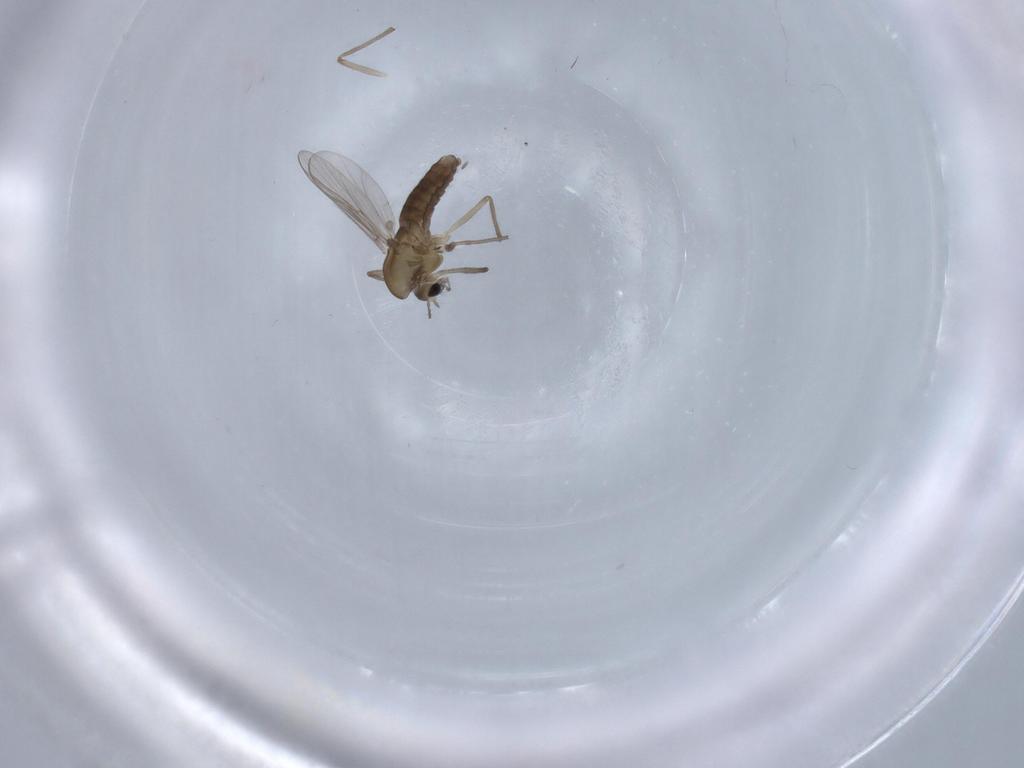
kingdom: Animalia
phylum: Arthropoda
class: Insecta
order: Diptera
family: Chironomidae
